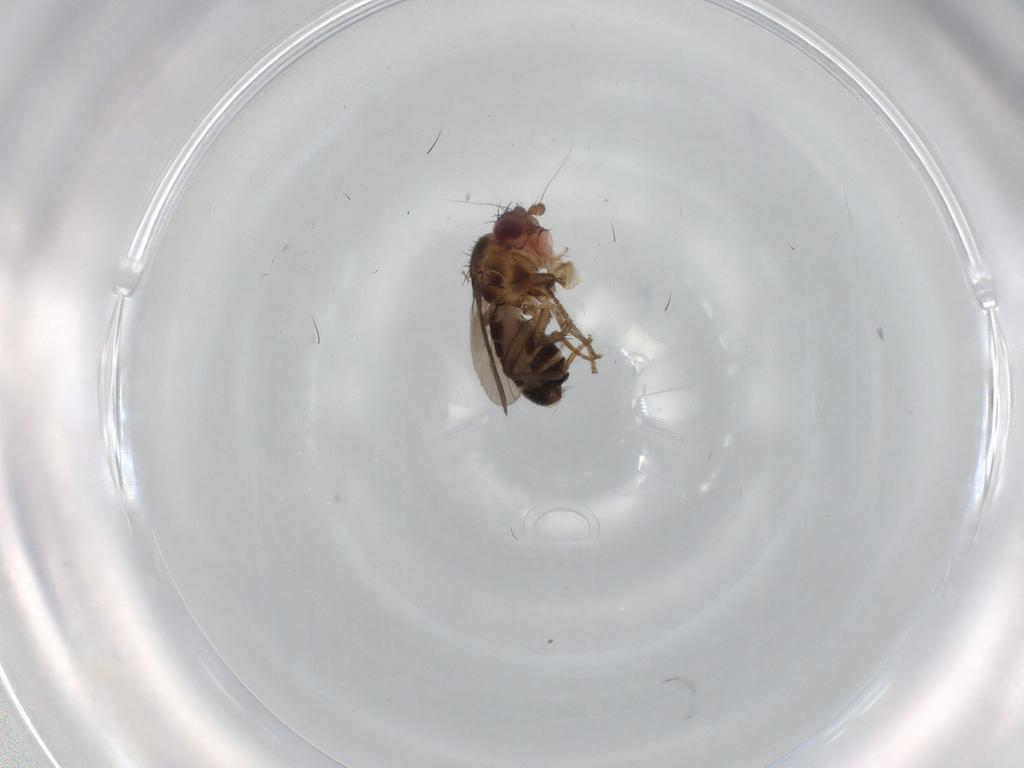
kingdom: Animalia
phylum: Arthropoda
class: Insecta
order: Diptera
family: Sphaeroceridae
